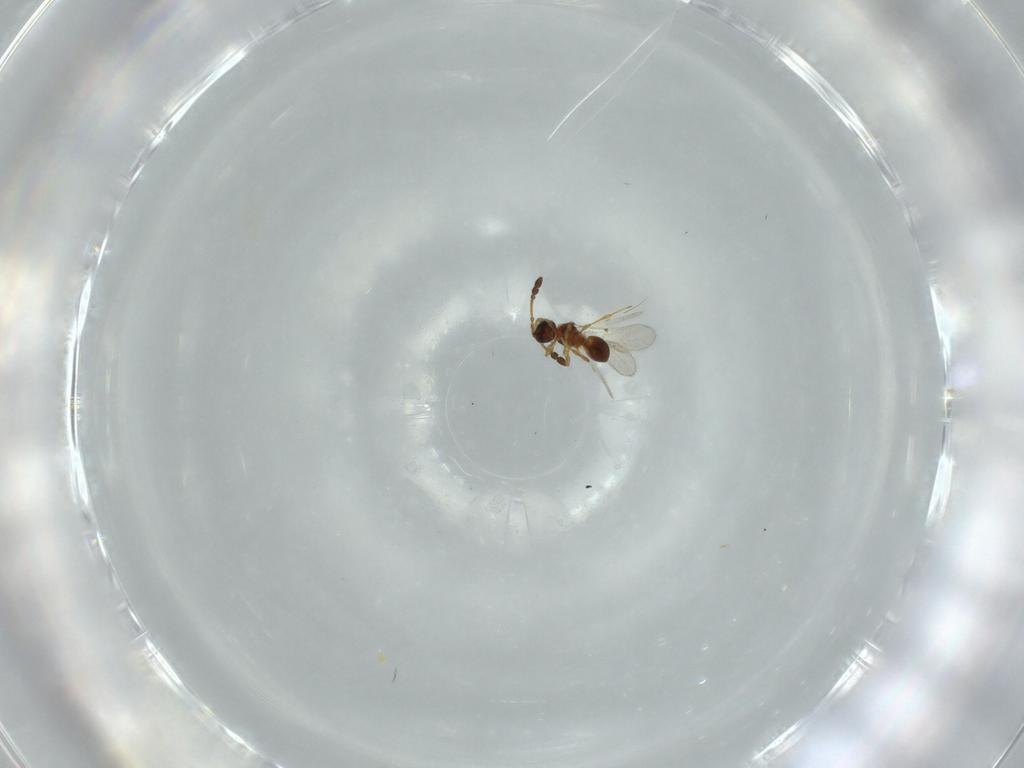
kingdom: Animalia
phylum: Arthropoda
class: Insecta
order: Hymenoptera
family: Diapriidae
